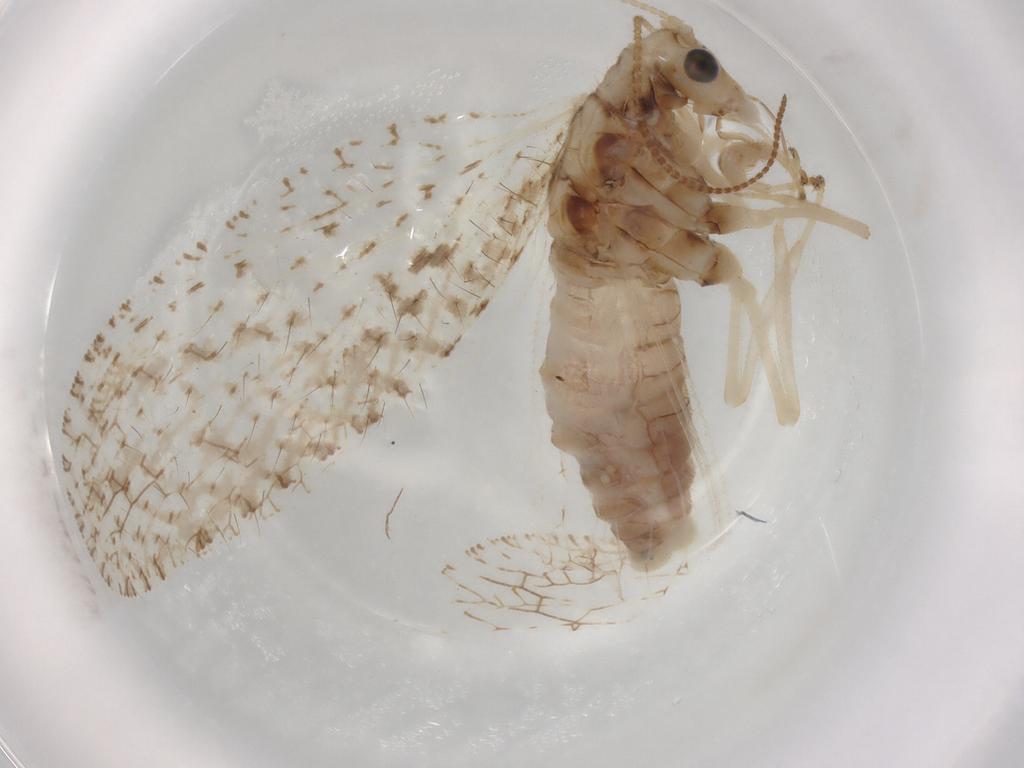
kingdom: Animalia
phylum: Arthropoda
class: Insecta
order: Neuroptera
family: Hemerobiidae
